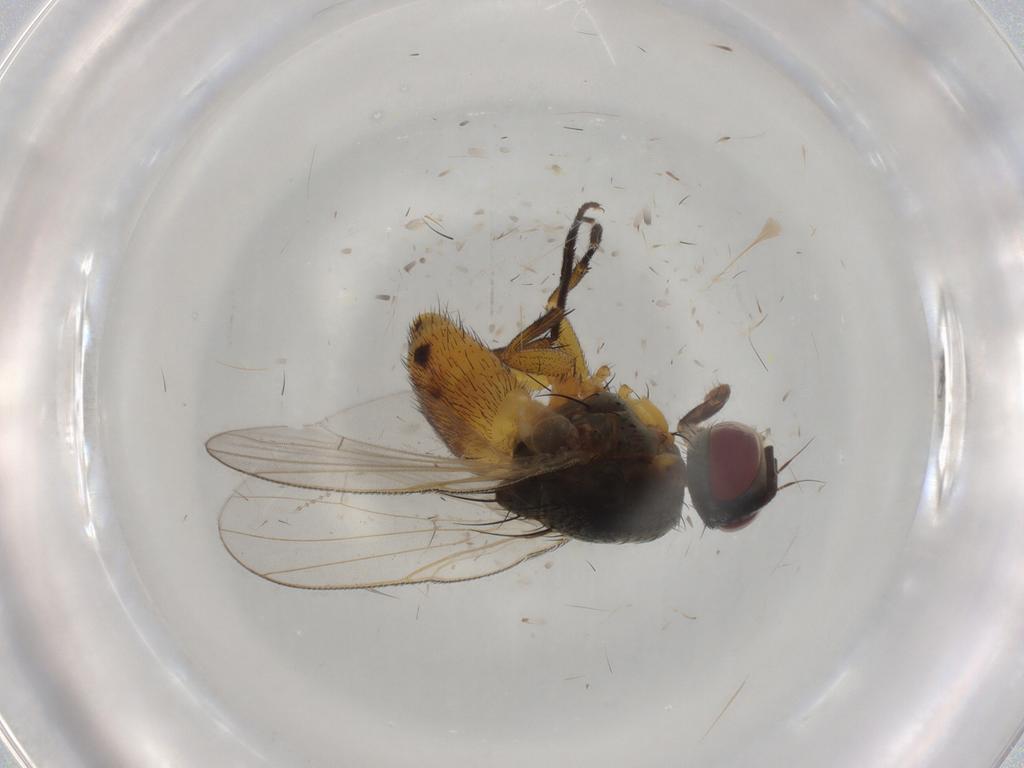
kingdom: Animalia
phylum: Arthropoda
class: Insecta
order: Diptera
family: Muscidae
